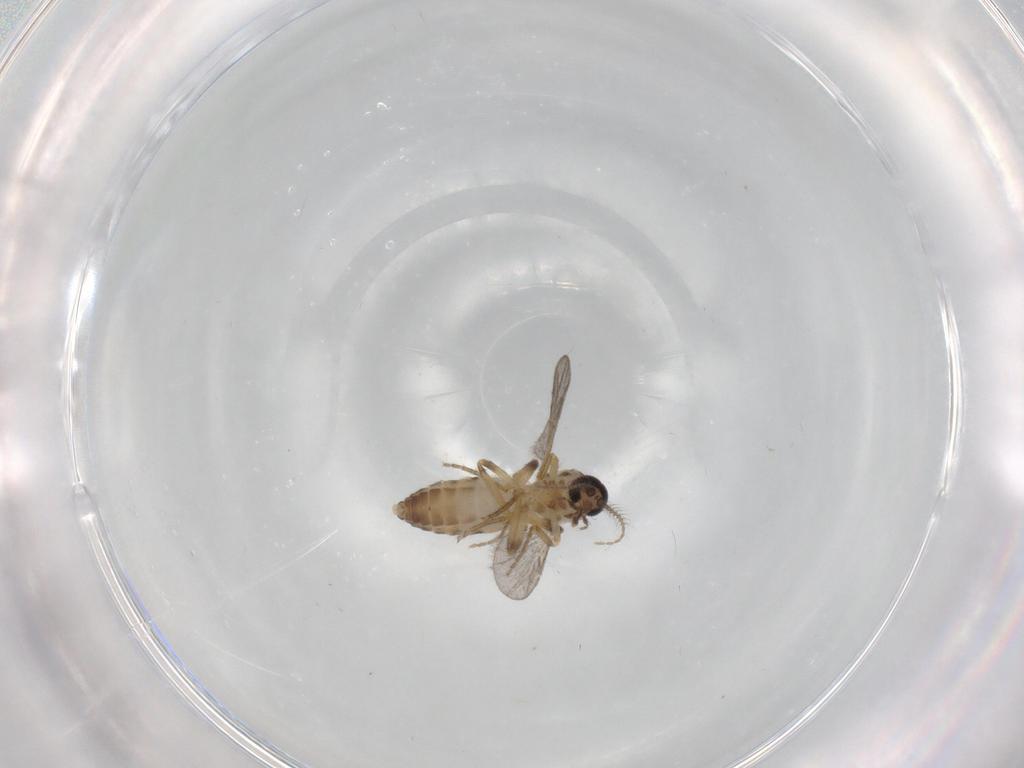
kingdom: Animalia
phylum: Arthropoda
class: Insecta
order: Diptera
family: Ceratopogonidae
